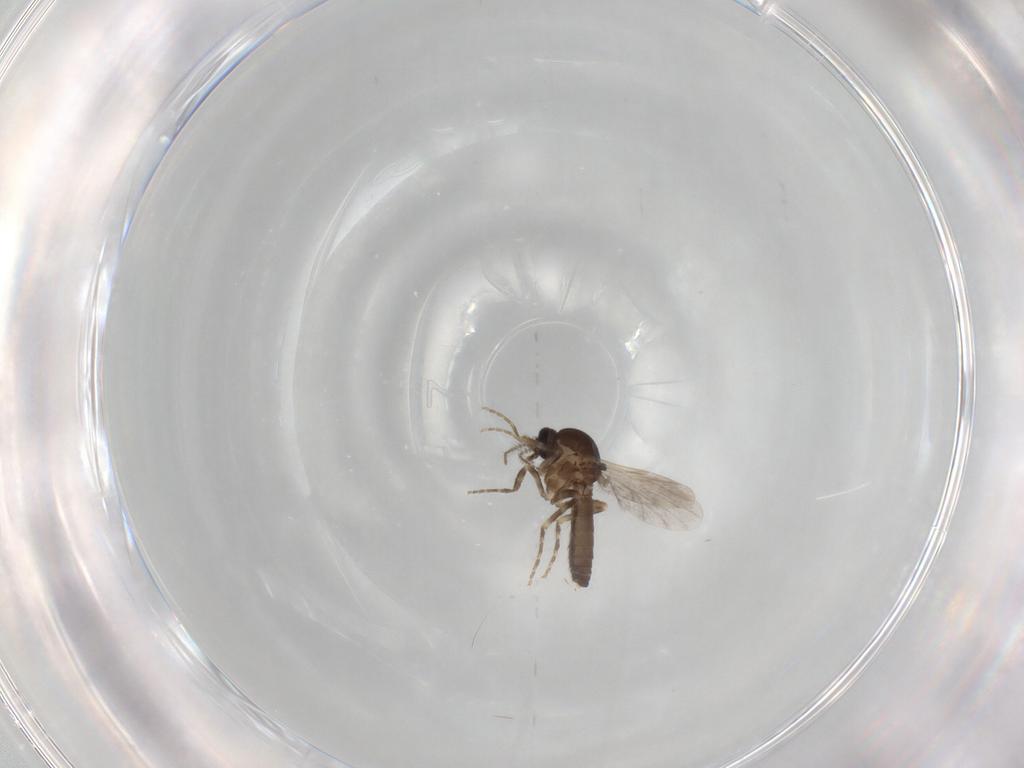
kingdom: Animalia
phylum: Arthropoda
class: Insecta
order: Diptera
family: Ceratopogonidae
